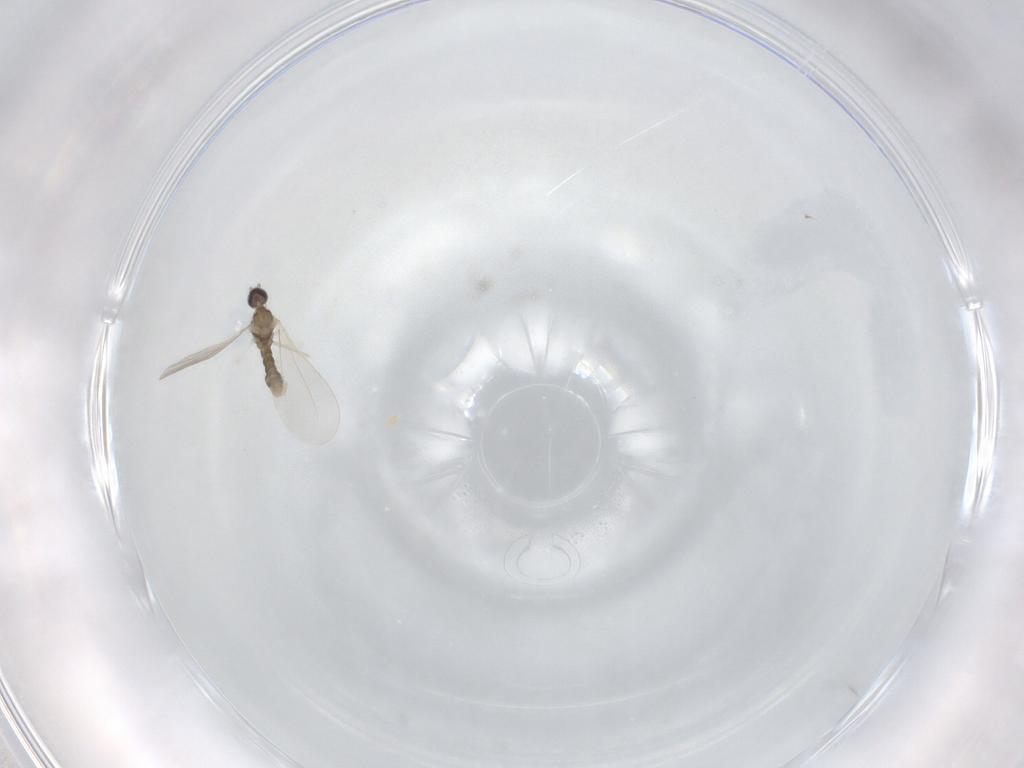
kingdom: Animalia
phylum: Arthropoda
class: Insecta
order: Diptera
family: Cecidomyiidae
